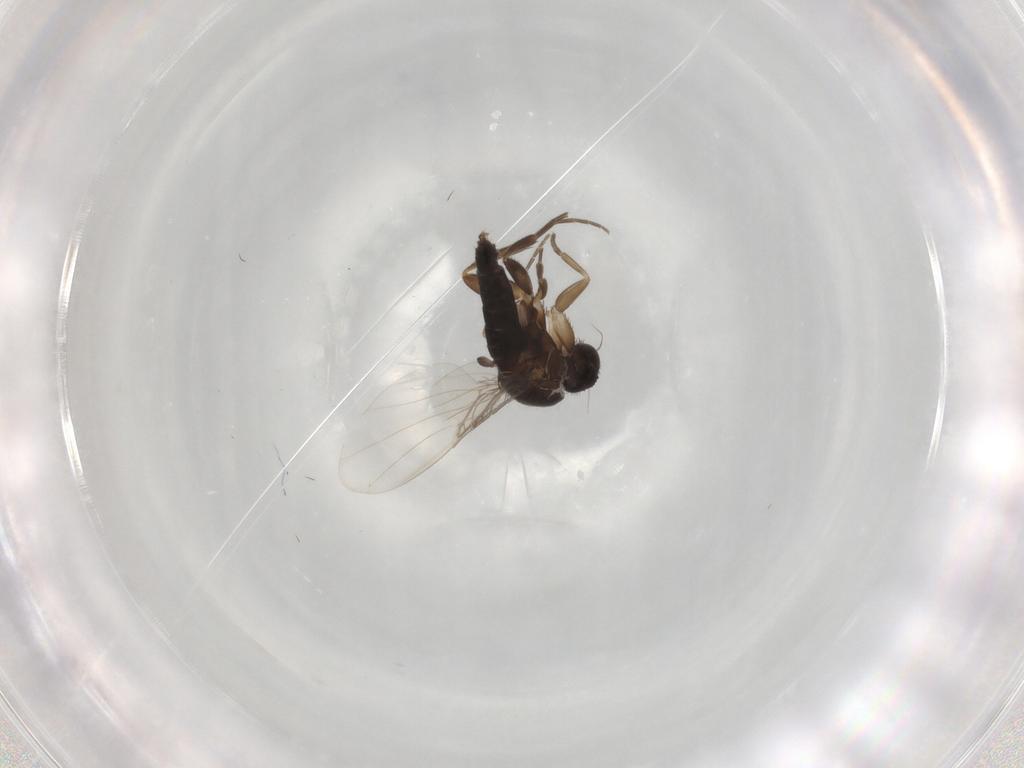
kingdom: Animalia
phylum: Arthropoda
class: Insecta
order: Diptera
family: Phoridae
